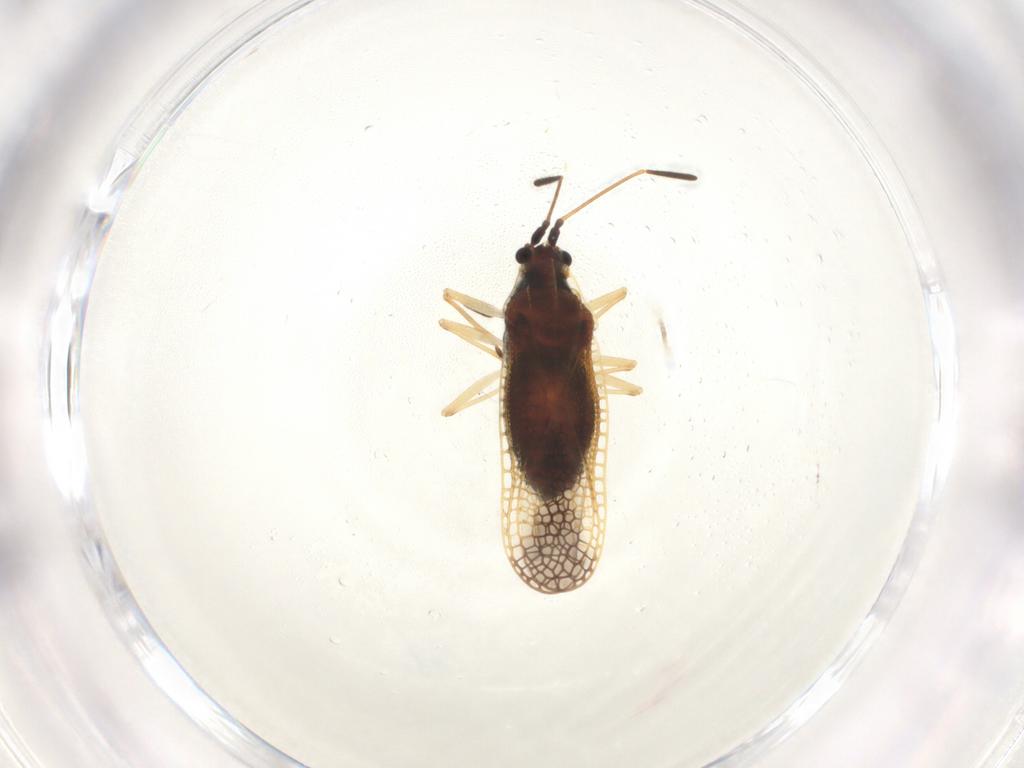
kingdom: Animalia
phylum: Arthropoda
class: Insecta
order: Hemiptera
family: Tingidae
